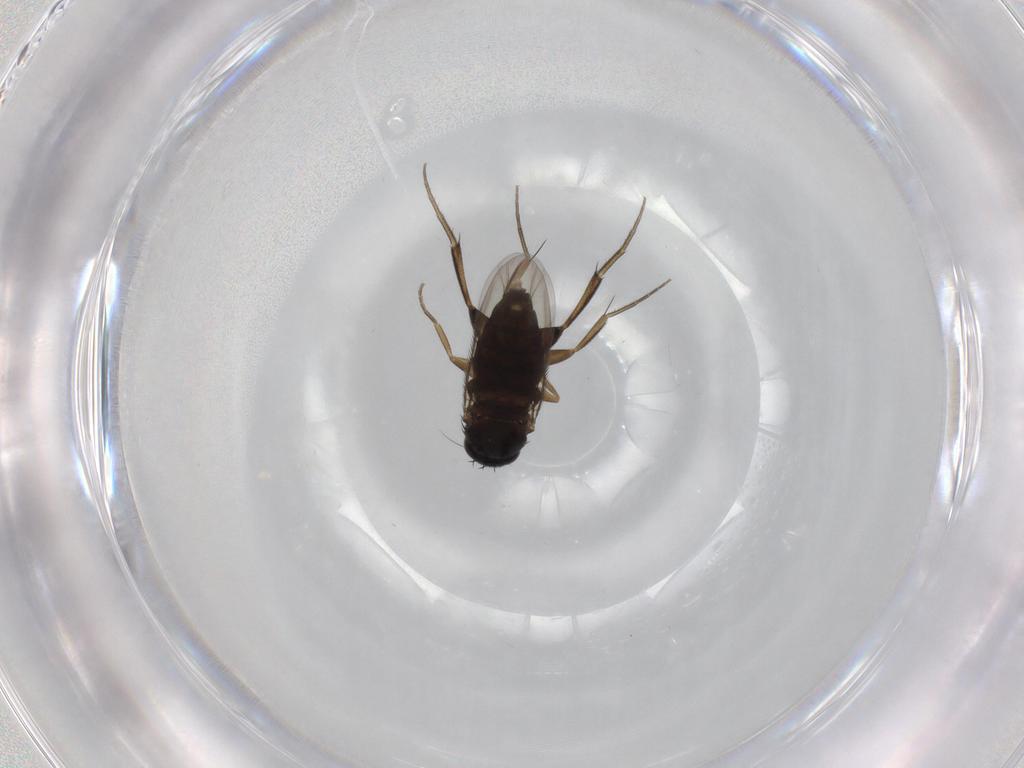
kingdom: Animalia
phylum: Arthropoda
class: Insecta
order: Diptera
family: Phoridae
